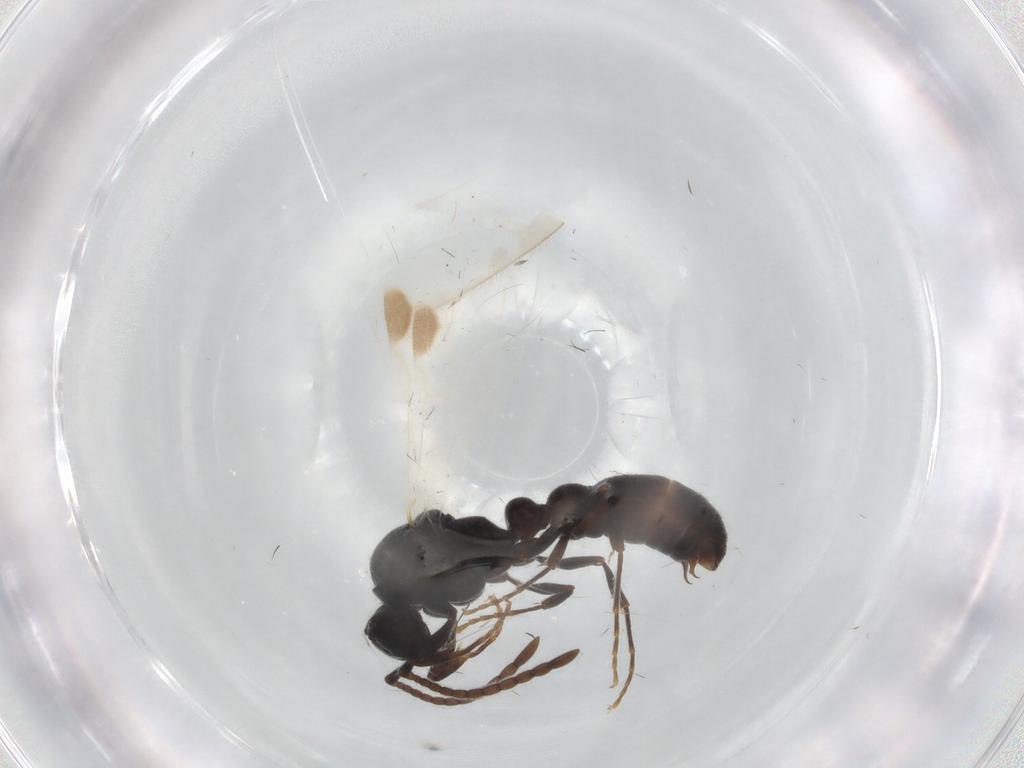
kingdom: Animalia
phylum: Arthropoda
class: Insecta
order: Hymenoptera
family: Formicidae
